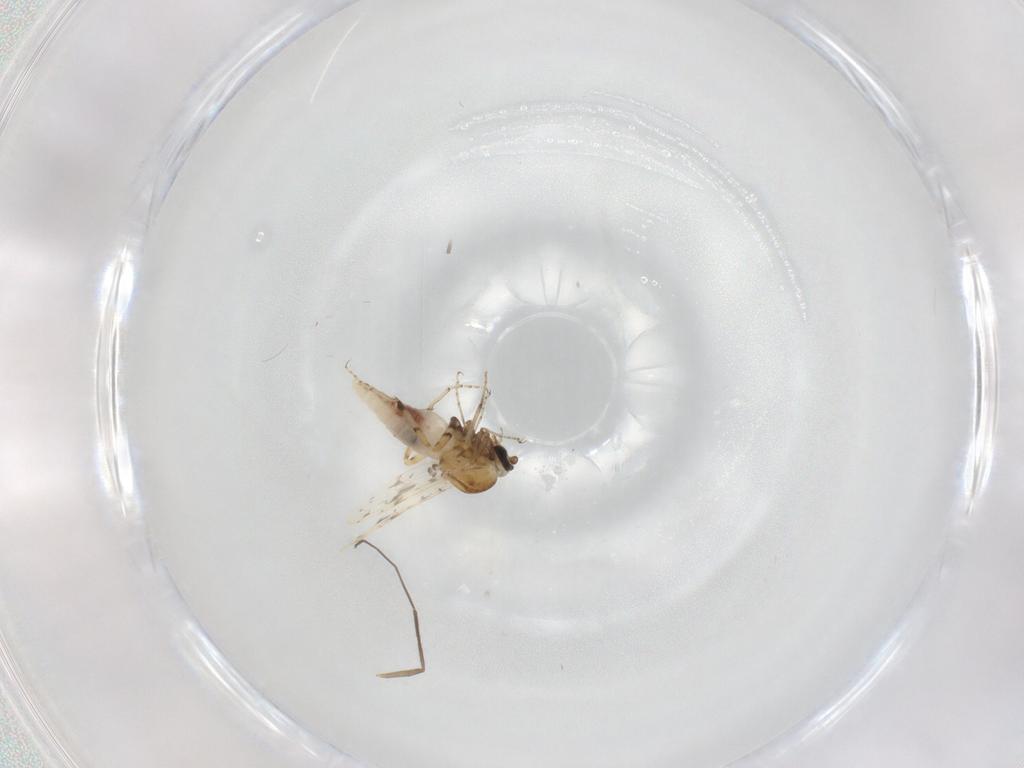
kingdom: Animalia
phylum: Arthropoda
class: Insecta
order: Diptera
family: Ceratopogonidae
